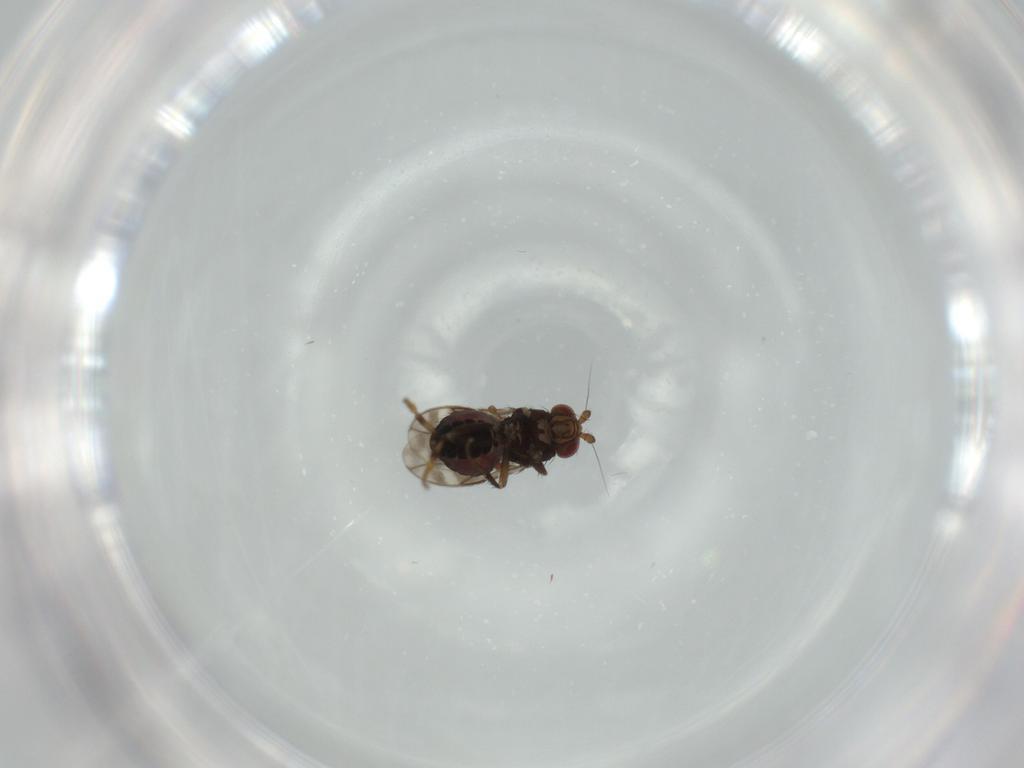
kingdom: Animalia
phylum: Arthropoda
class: Insecta
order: Diptera
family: Sphaeroceridae
